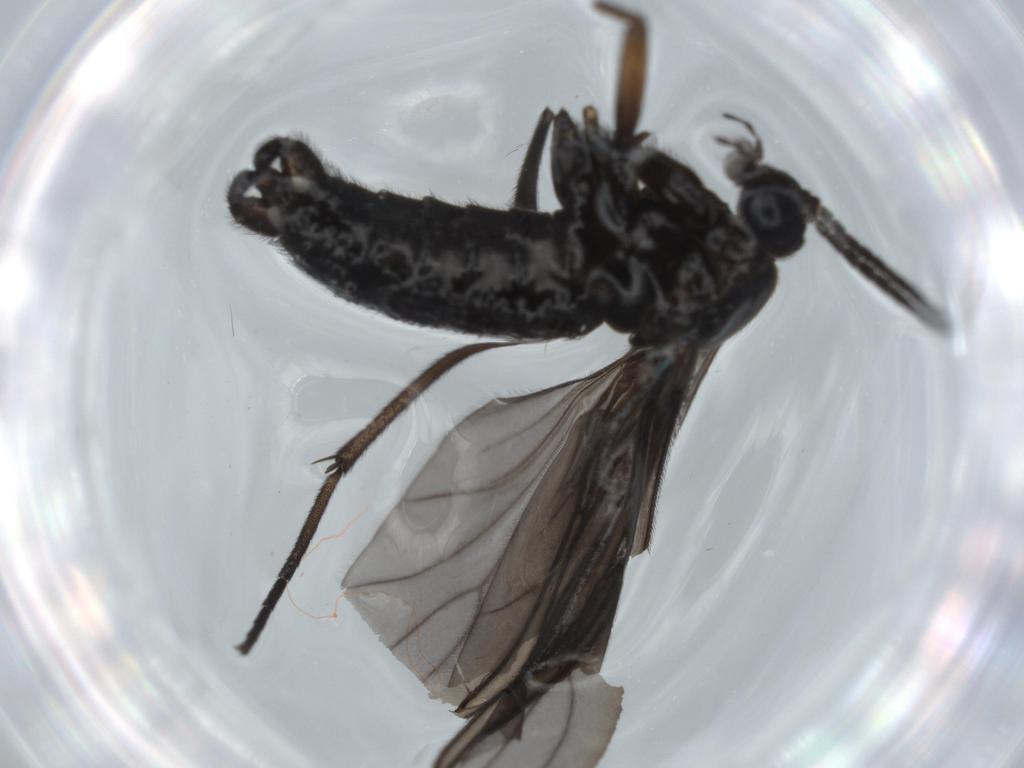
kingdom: Animalia
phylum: Arthropoda
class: Insecta
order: Diptera
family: Sciaridae
